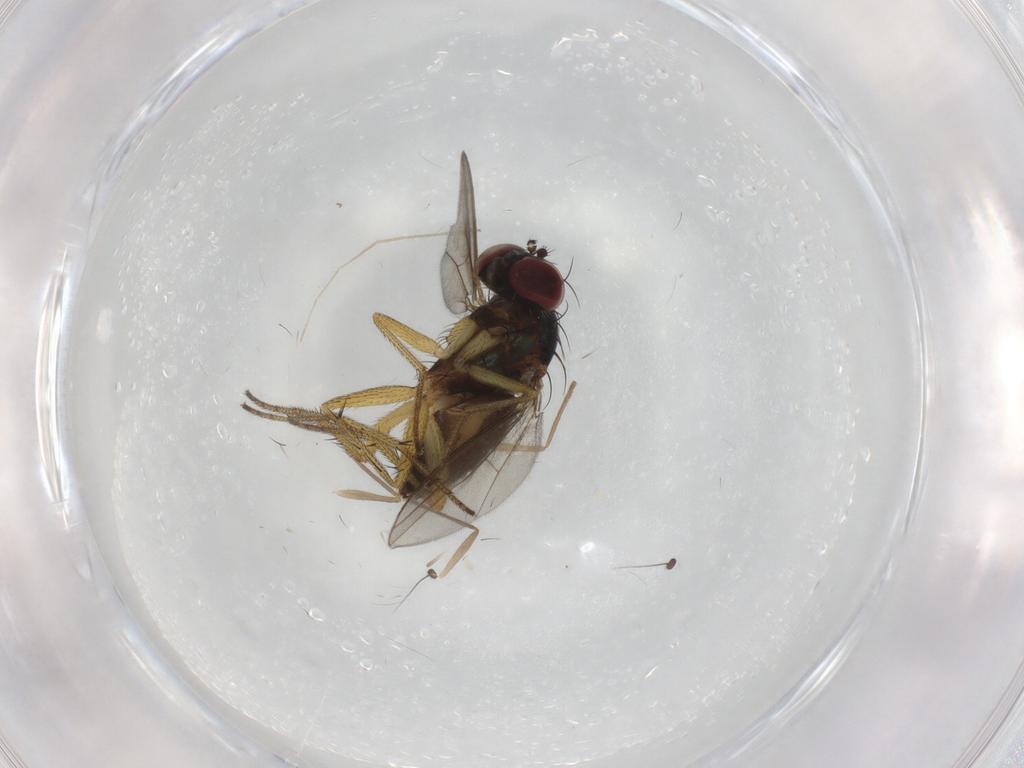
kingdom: Animalia
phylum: Arthropoda
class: Insecta
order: Diptera
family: Chironomidae
